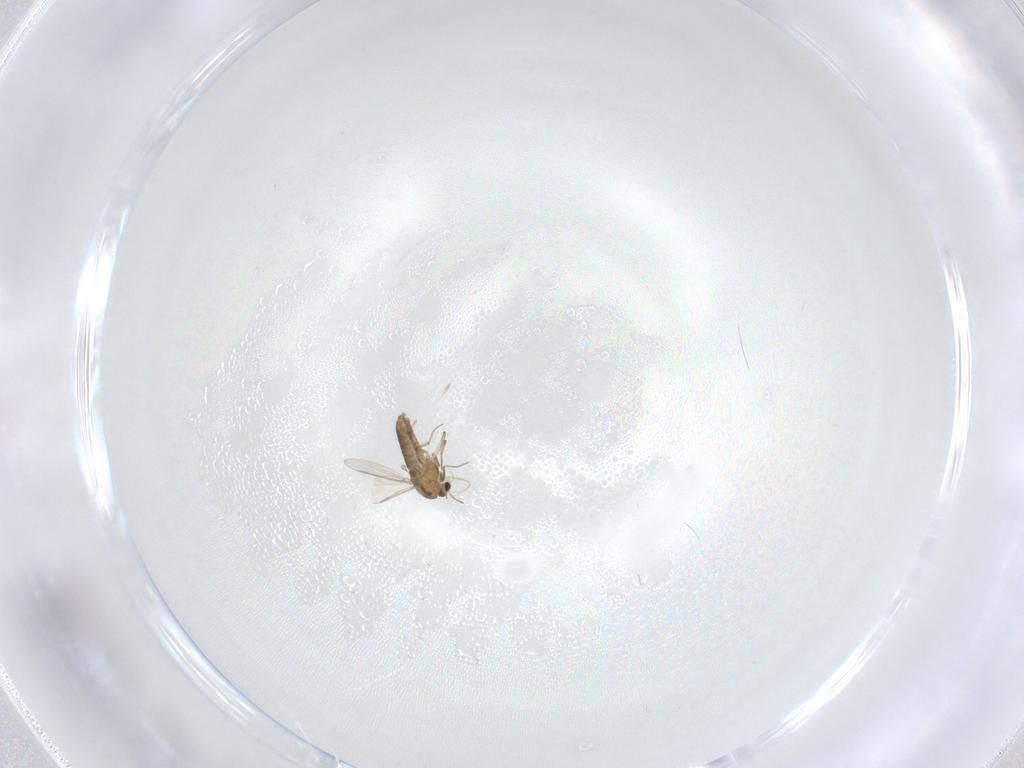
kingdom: Animalia
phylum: Arthropoda
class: Insecta
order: Diptera
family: Chironomidae
